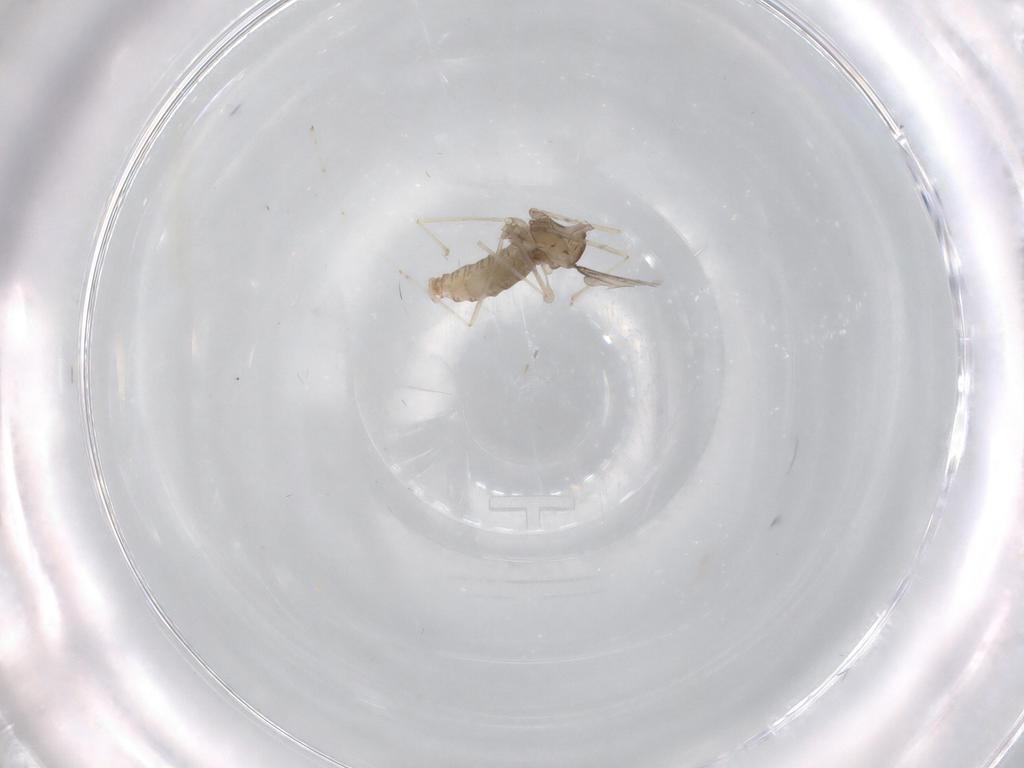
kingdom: Animalia
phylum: Arthropoda
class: Insecta
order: Diptera
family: Cecidomyiidae
